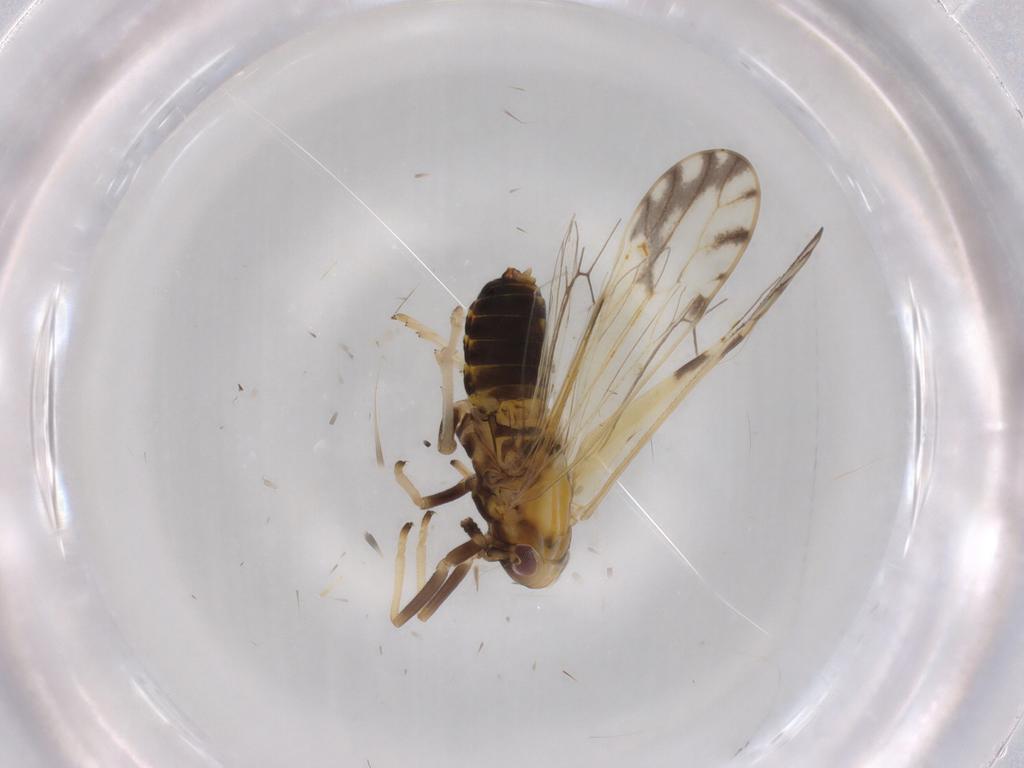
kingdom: Animalia
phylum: Arthropoda
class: Insecta
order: Hemiptera
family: Delphacidae
